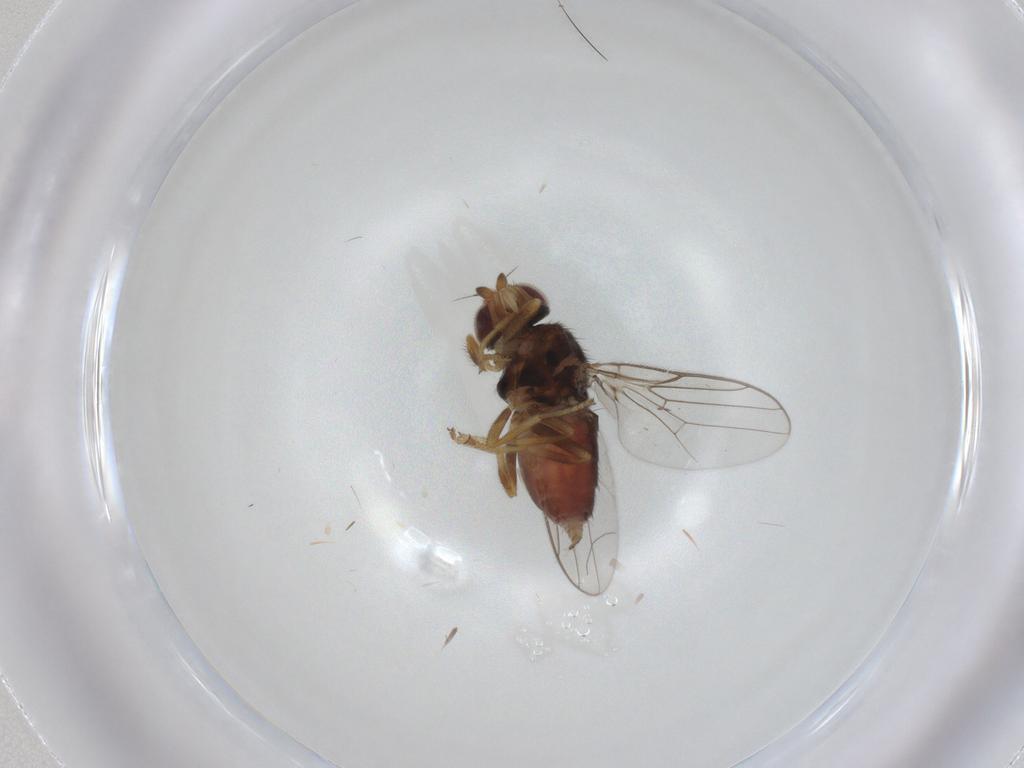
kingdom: Animalia
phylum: Arthropoda
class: Insecta
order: Diptera
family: Chloropidae
